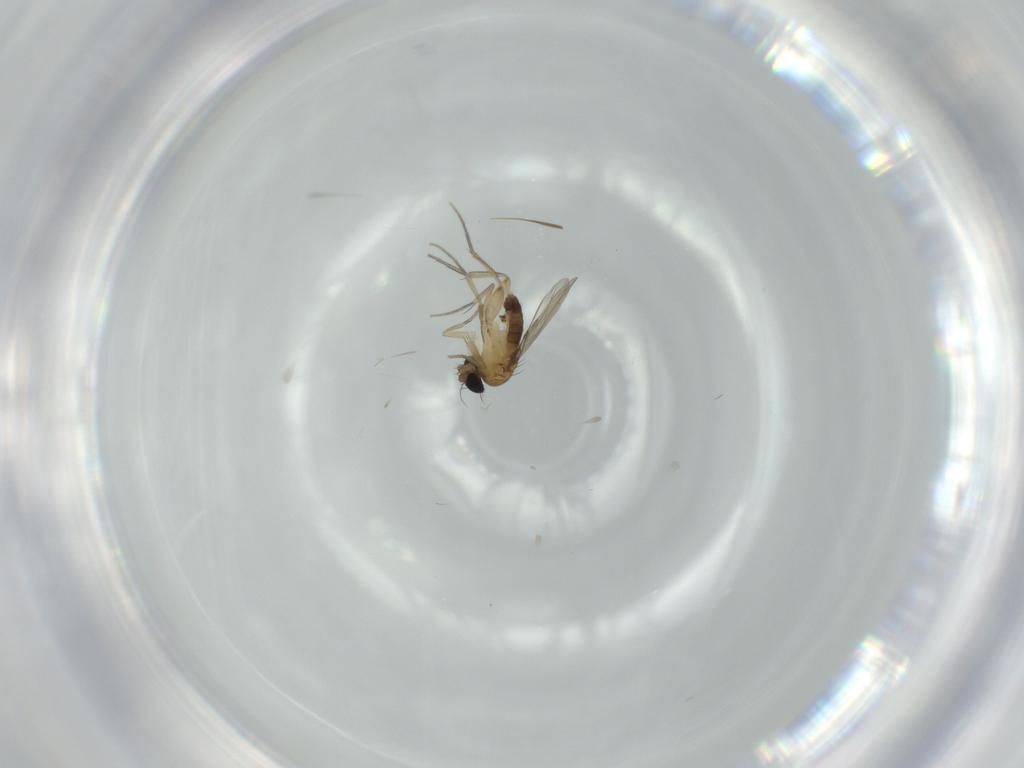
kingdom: Animalia
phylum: Arthropoda
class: Insecta
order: Diptera
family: Phoridae
